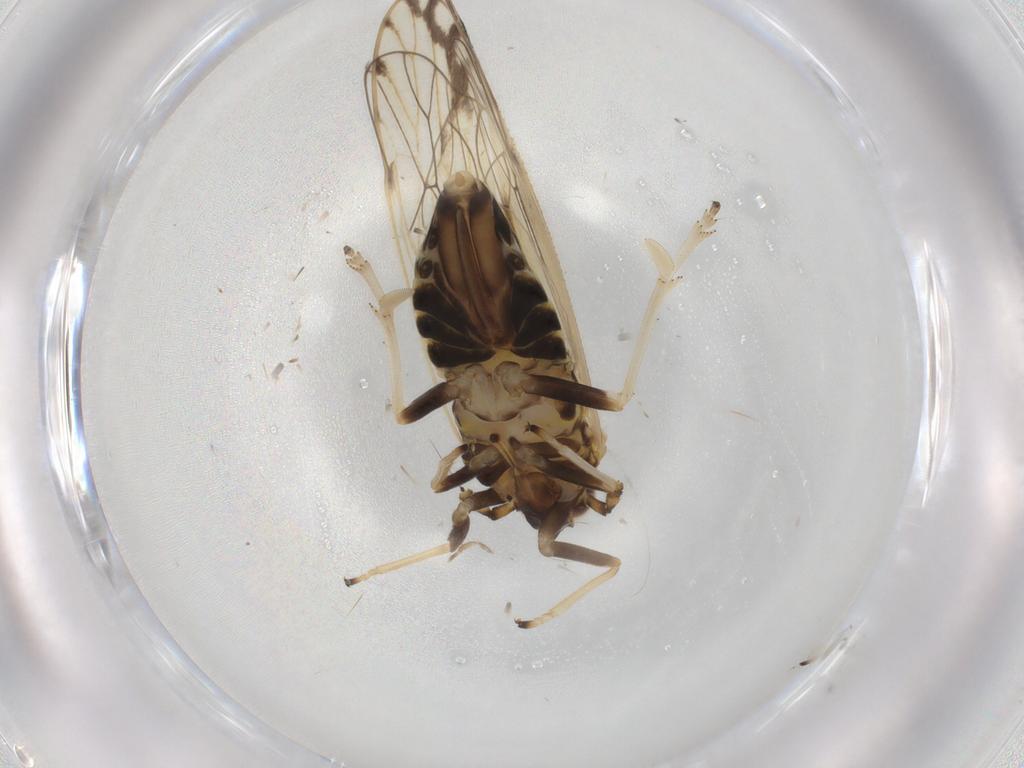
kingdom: Animalia
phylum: Arthropoda
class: Insecta
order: Hemiptera
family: Delphacidae
